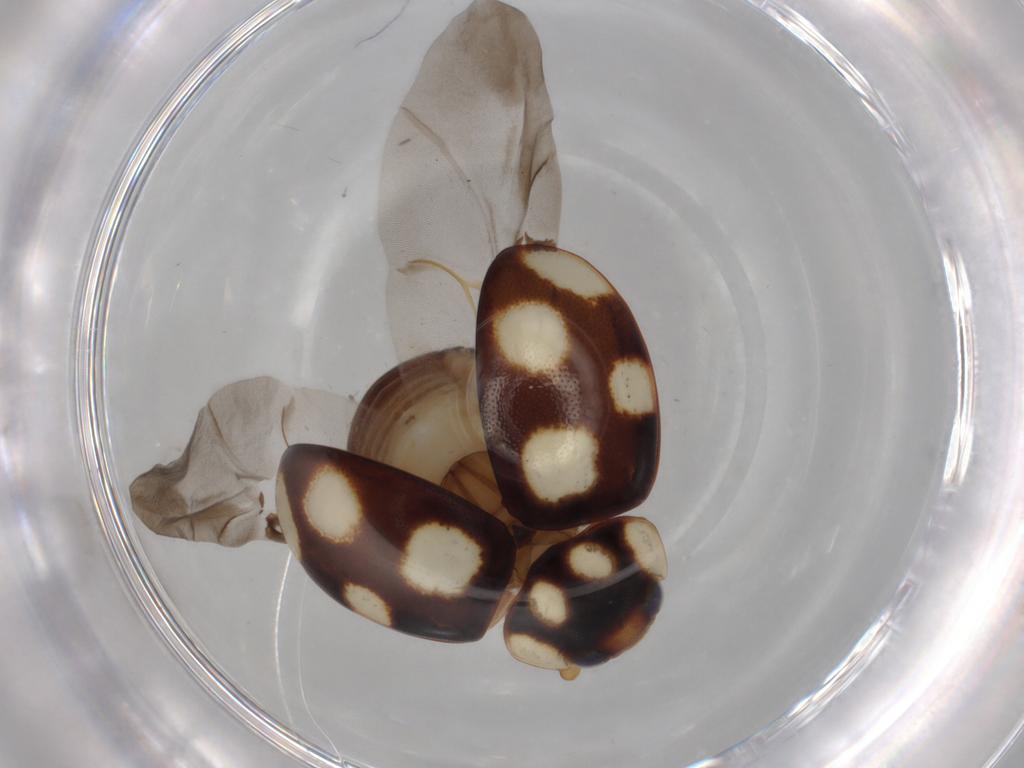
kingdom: Animalia
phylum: Arthropoda
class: Insecta
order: Coleoptera
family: Coccinellidae
